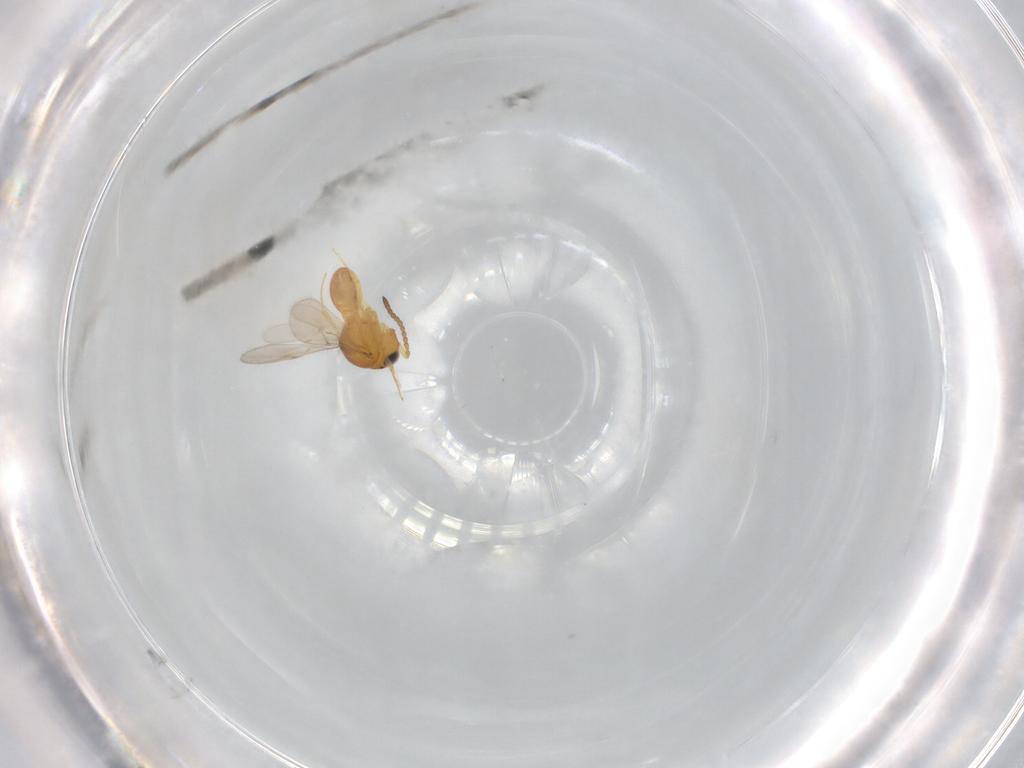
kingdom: Animalia
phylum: Arthropoda
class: Insecta
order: Hymenoptera
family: Scelionidae
